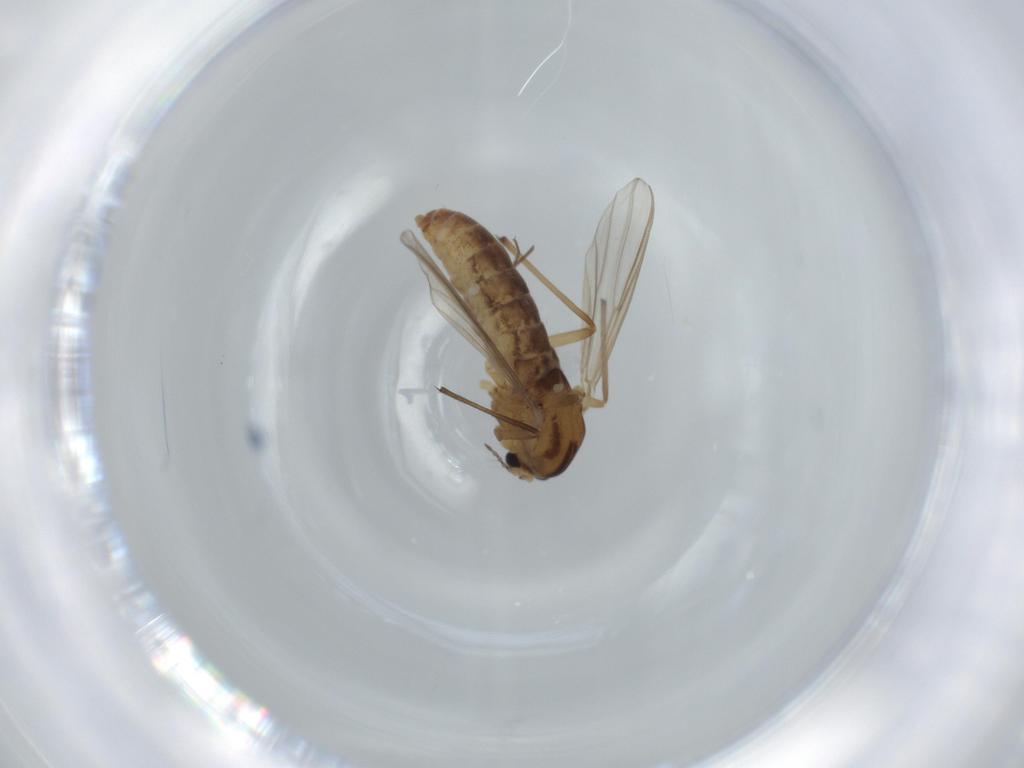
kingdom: Animalia
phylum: Arthropoda
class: Insecta
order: Diptera
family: Chironomidae
